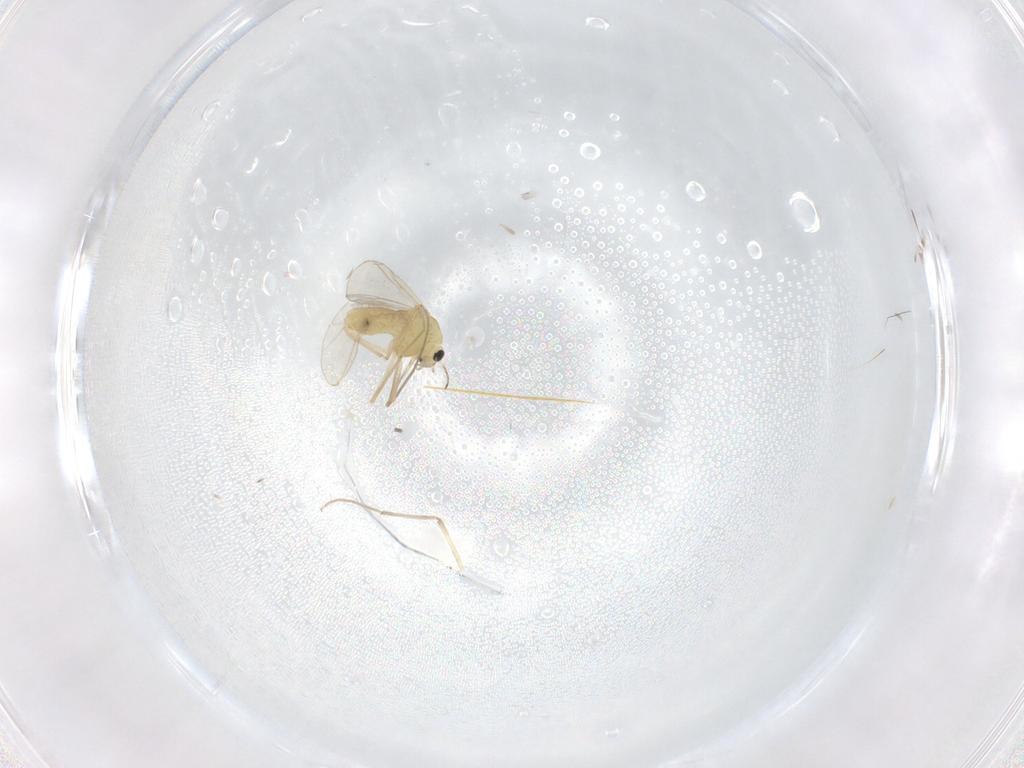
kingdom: Animalia
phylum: Arthropoda
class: Insecta
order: Diptera
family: Chironomidae
